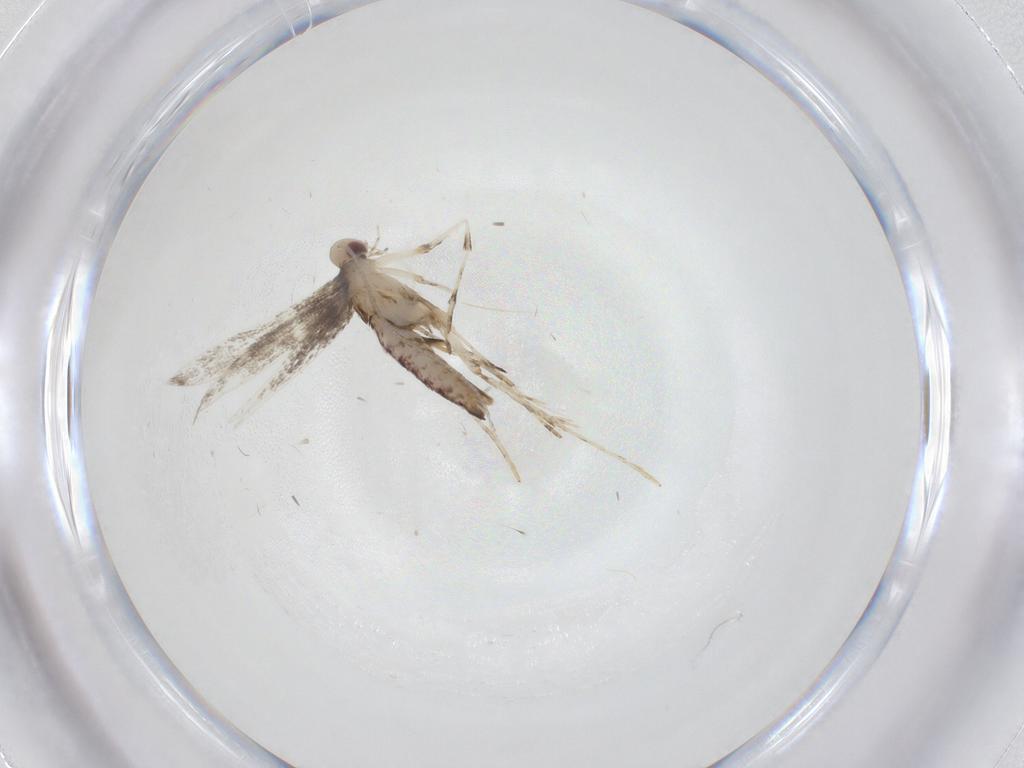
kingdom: Animalia
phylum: Arthropoda
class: Insecta
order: Lepidoptera
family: Gracillariidae
